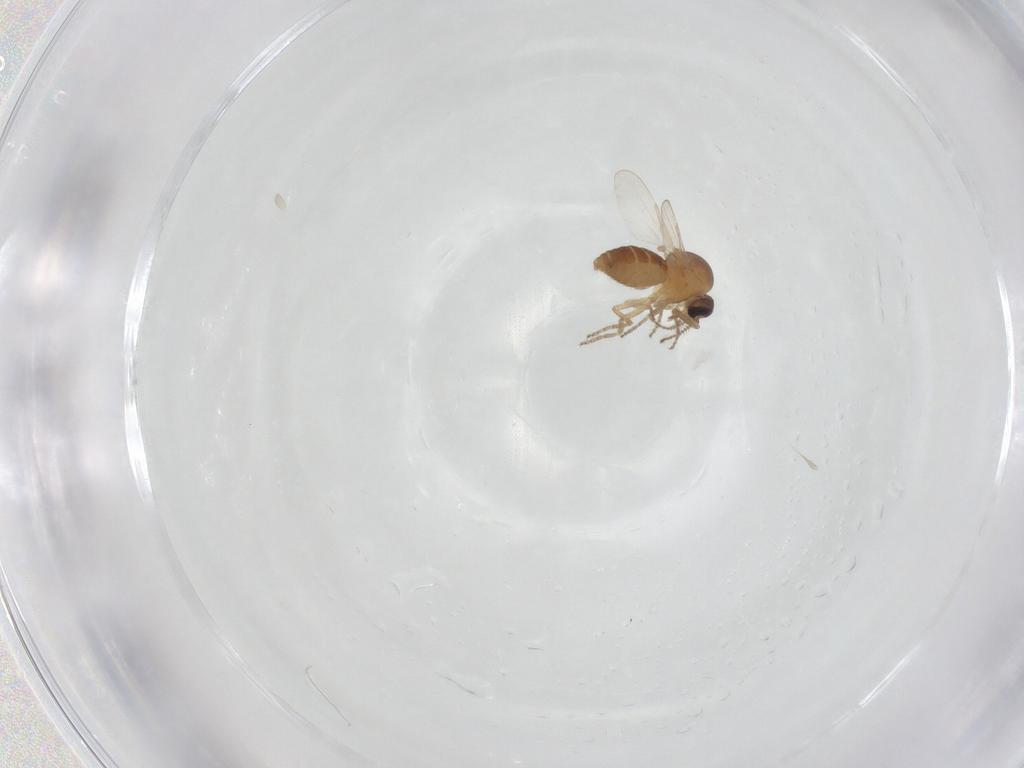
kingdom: Animalia
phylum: Arthropoda
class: Insecta
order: Diptera
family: Ceratopogonidae
